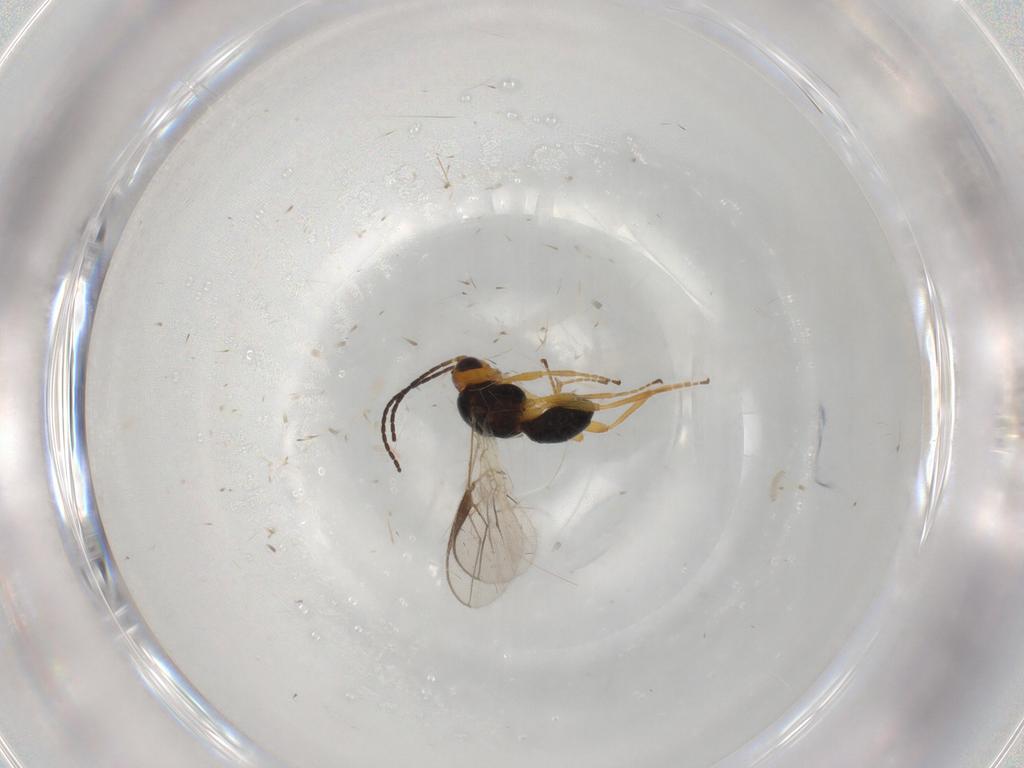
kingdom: Animalia
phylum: Arthropoda
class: Insecta
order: Hymenoptera
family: Braconidae
